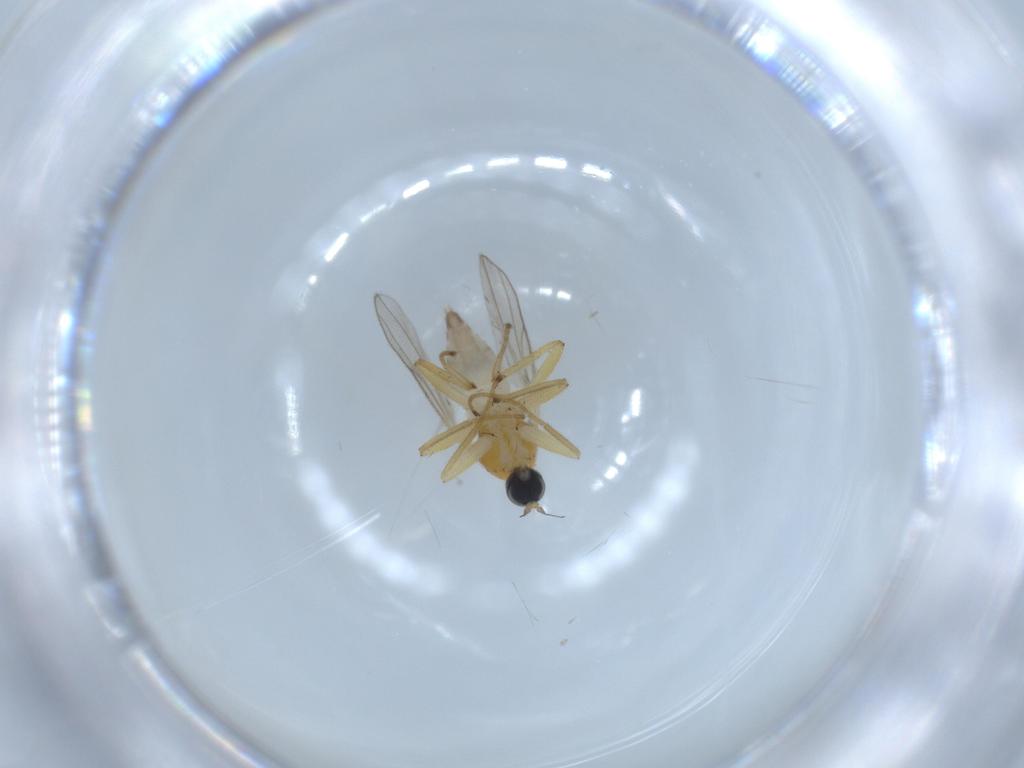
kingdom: Animalia
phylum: Arthropoda
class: Insecta
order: Diptera
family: Hybotidae
